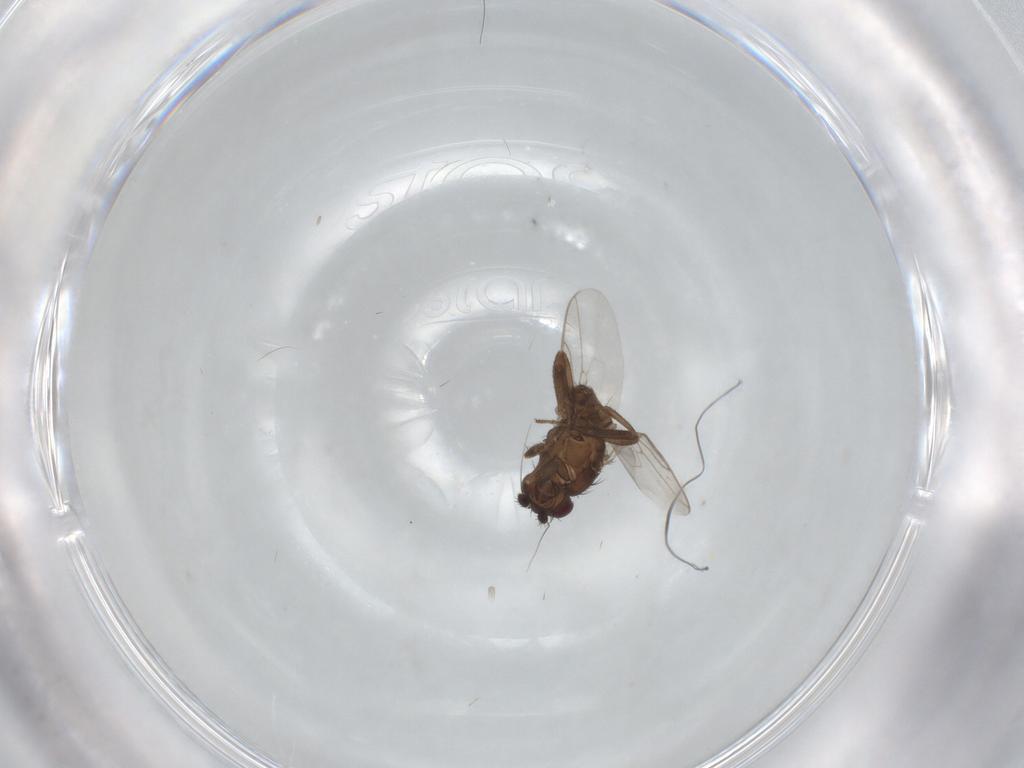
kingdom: Animalia
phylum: Arthropoda
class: Insecta
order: Diptera
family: Sphaeroceridae
